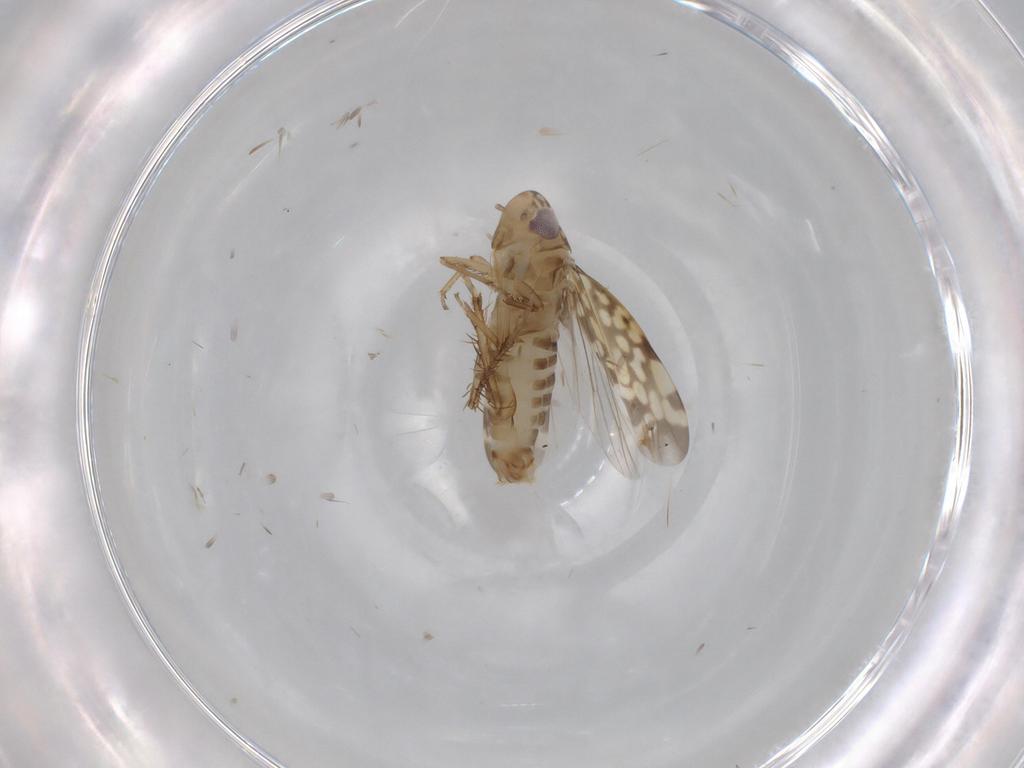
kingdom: Animalia
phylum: Arthropoda
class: Insecta
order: Hemiptera
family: Cicadellidae
